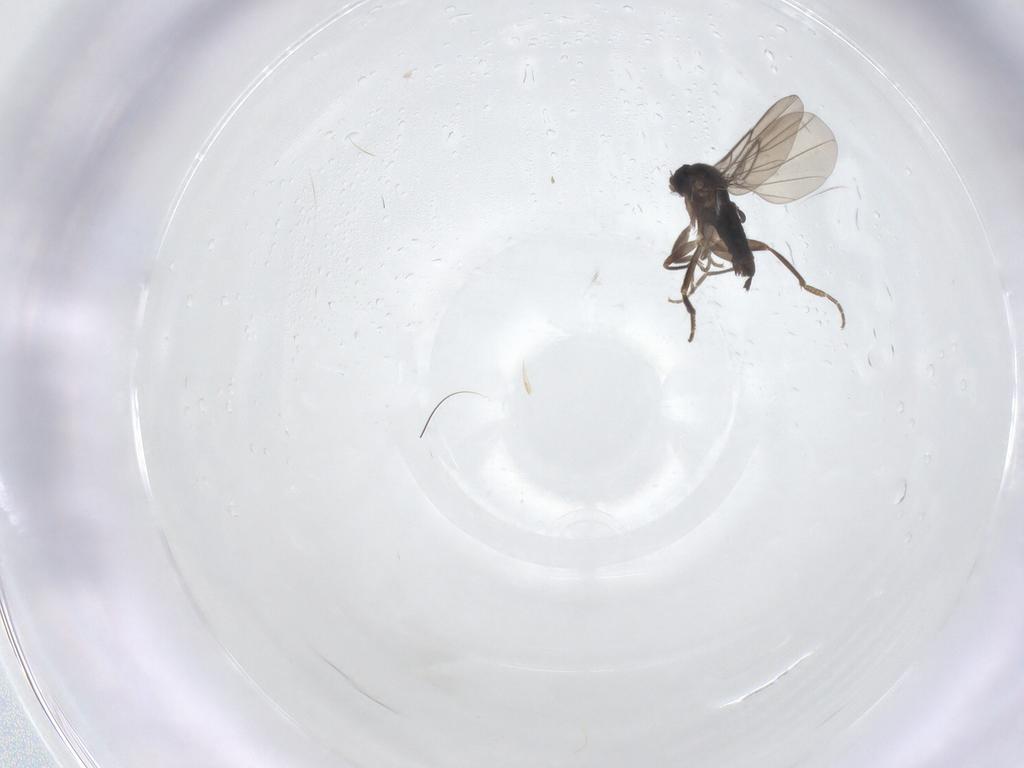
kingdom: Animalia
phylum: Arthropoda
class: Insecta
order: Diptera
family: Phoridae
